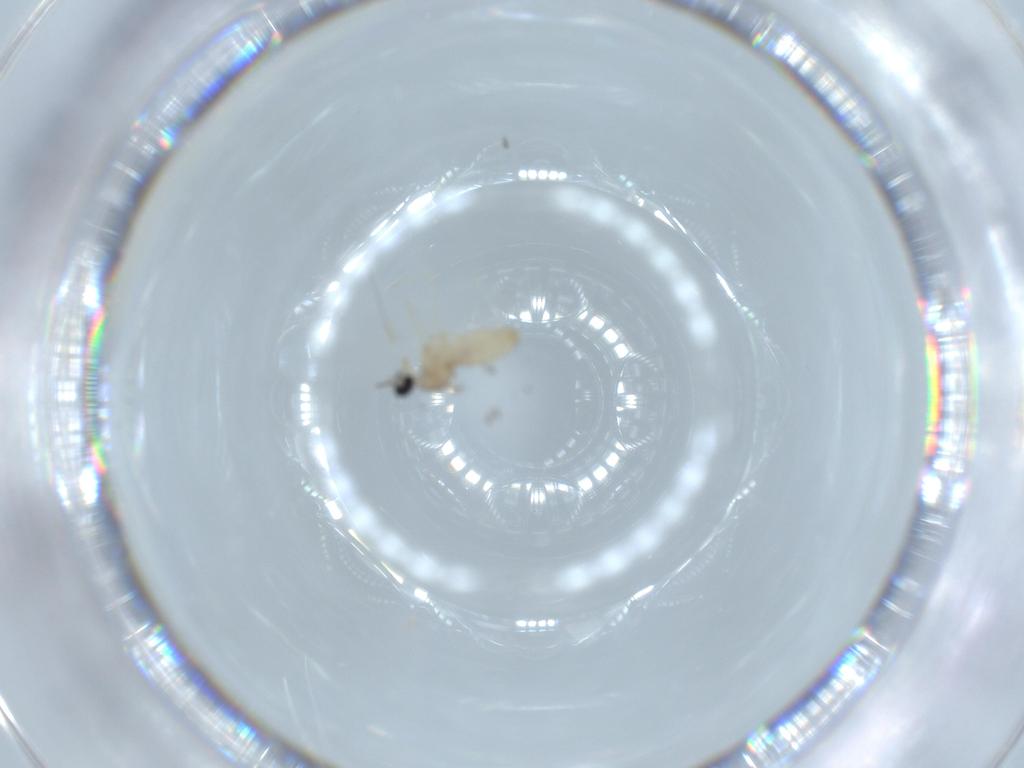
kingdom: Animalia
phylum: Arthropoda
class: Insecta
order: Diptera
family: Cecidomyiidae
